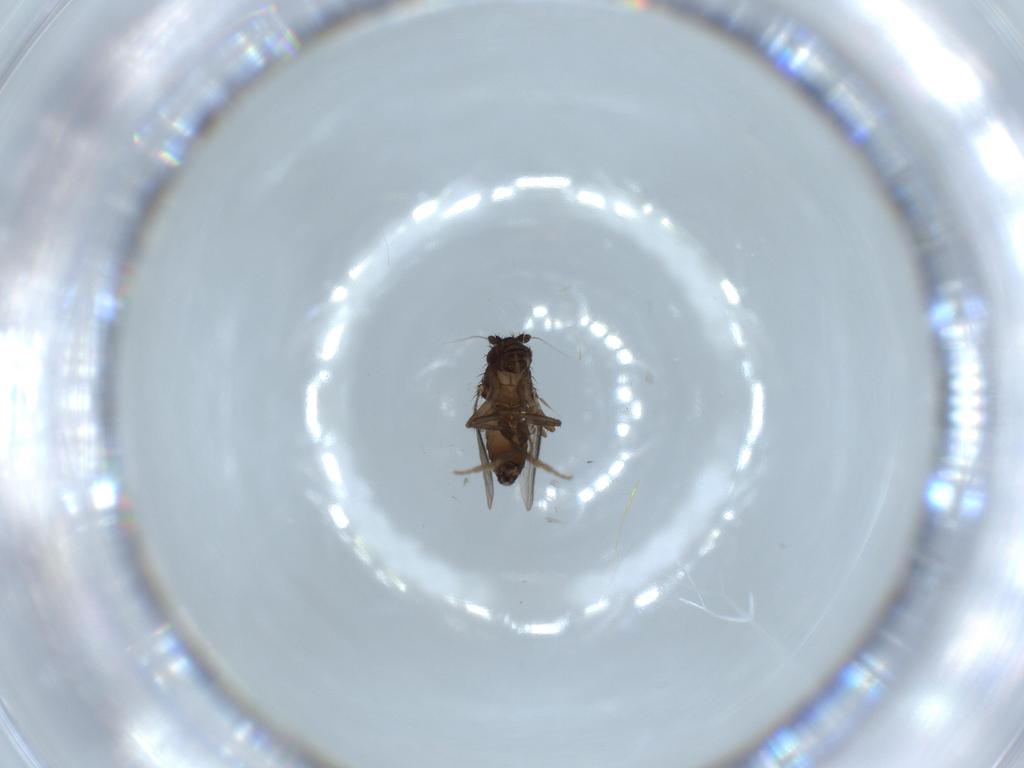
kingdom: Animalia
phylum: Arthropoda
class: Insecta
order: Diptera
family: Sphaeroceridae
